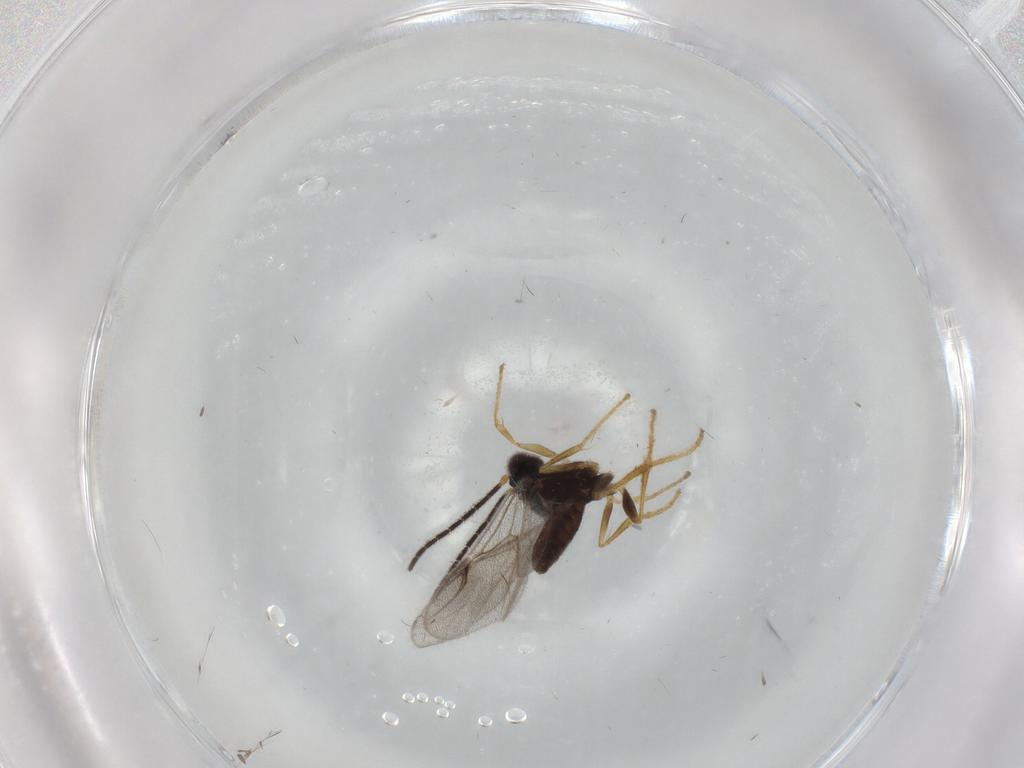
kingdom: Animalia
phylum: Arthropoda
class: Insecta
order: Hymenoptera
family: Dryinidae
